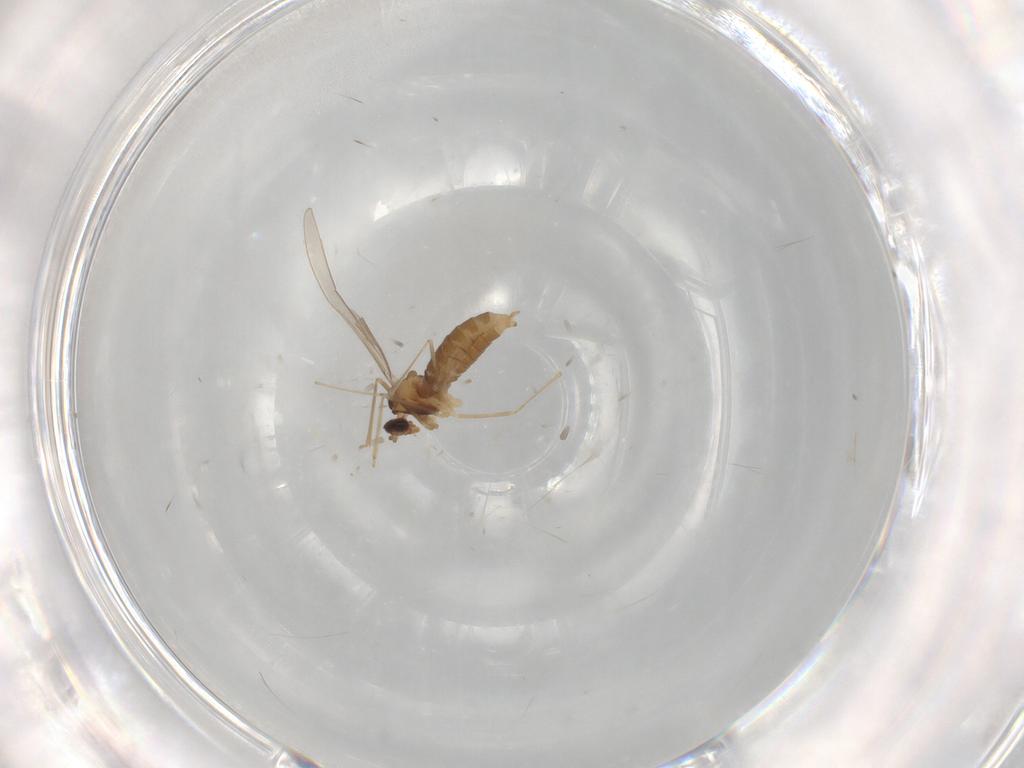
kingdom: Animalia
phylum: Arthropoda
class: Insecta
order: Diptera
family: Cecidomyiidae
